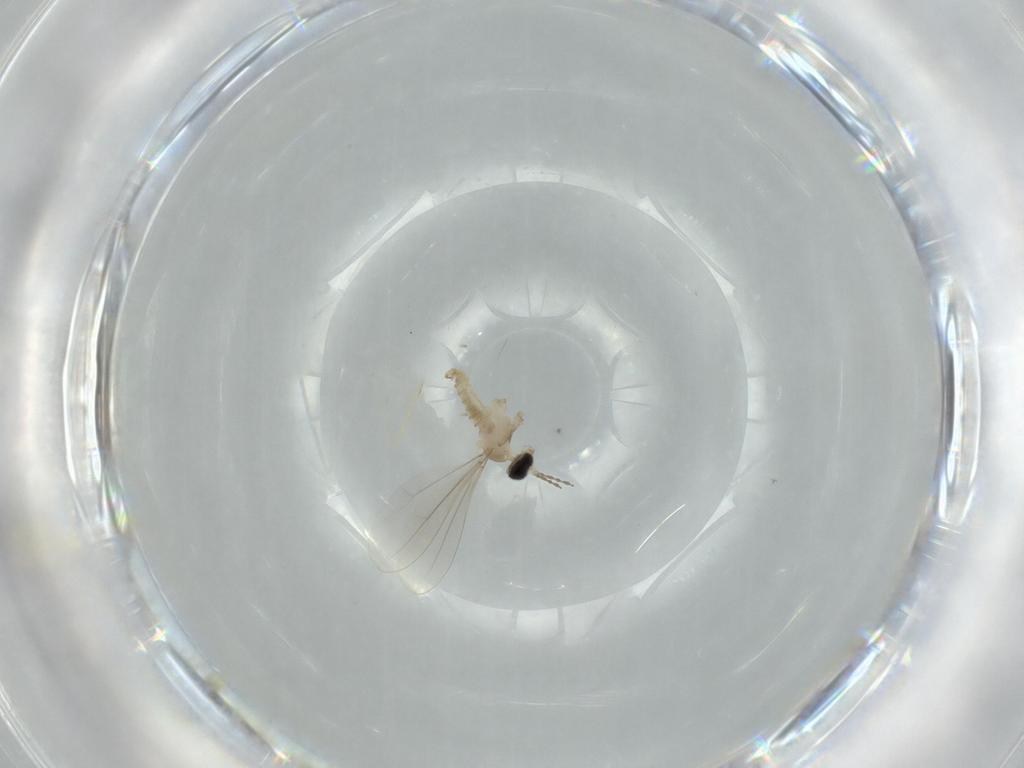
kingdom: Animalia
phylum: Arthropoda
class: Insecta
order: Diptera
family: Cecidomyiidae
